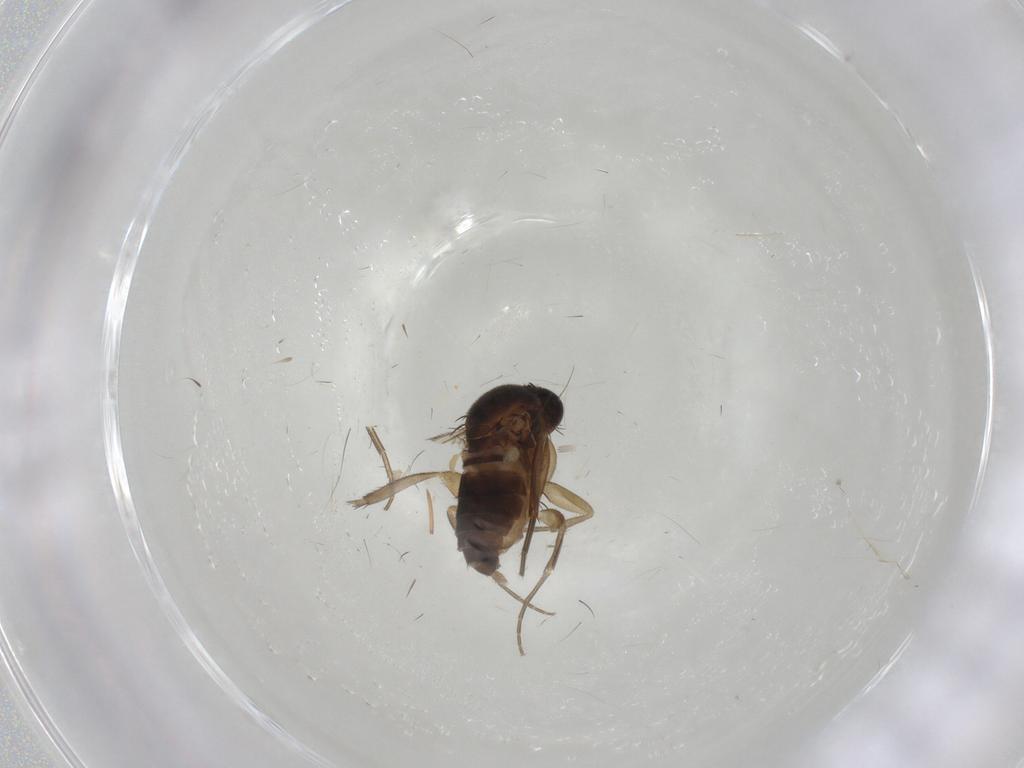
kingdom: Animalia
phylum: Arthropoda
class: Insecta
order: Diptera
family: Phoridae
